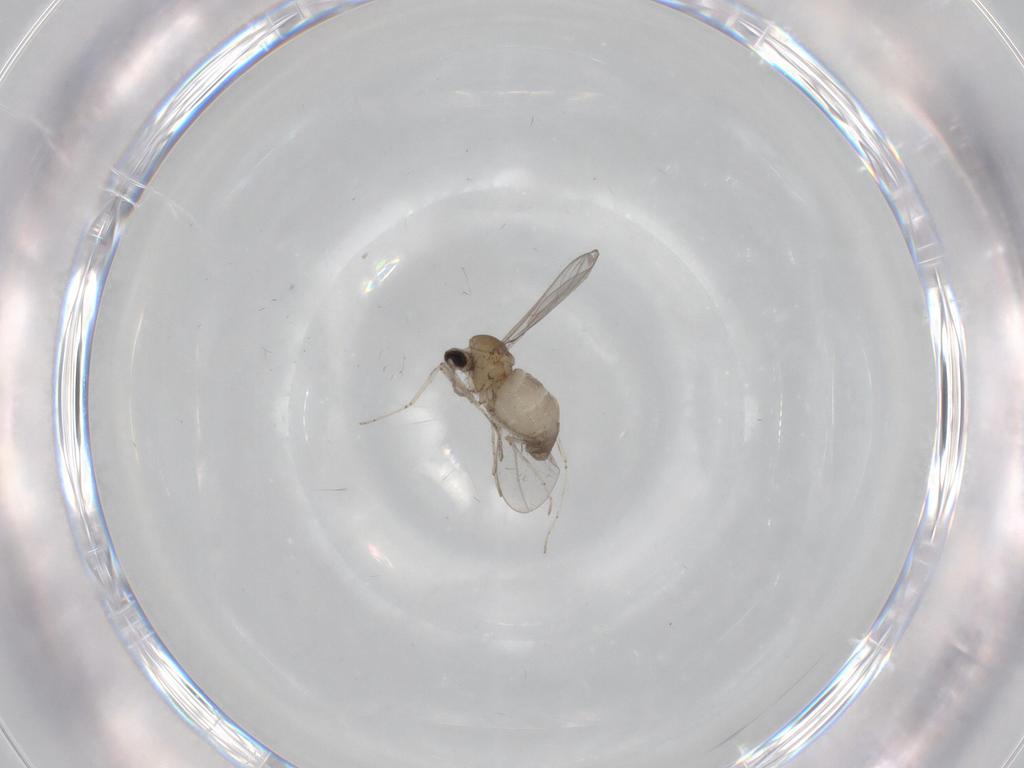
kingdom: Animalia
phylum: Arthropoda
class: Insecta
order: Diptera
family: Cecidomyiidae
